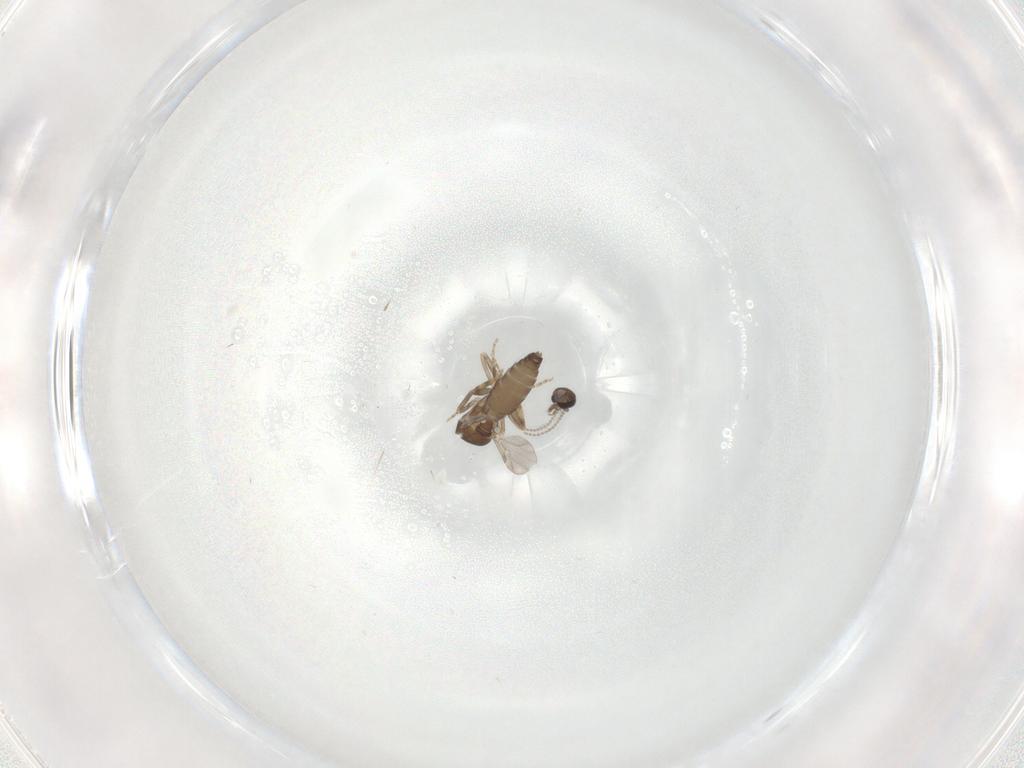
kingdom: Animalia
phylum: Arthropoda
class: Insecta
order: Diptera
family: Ceratopogonidae
